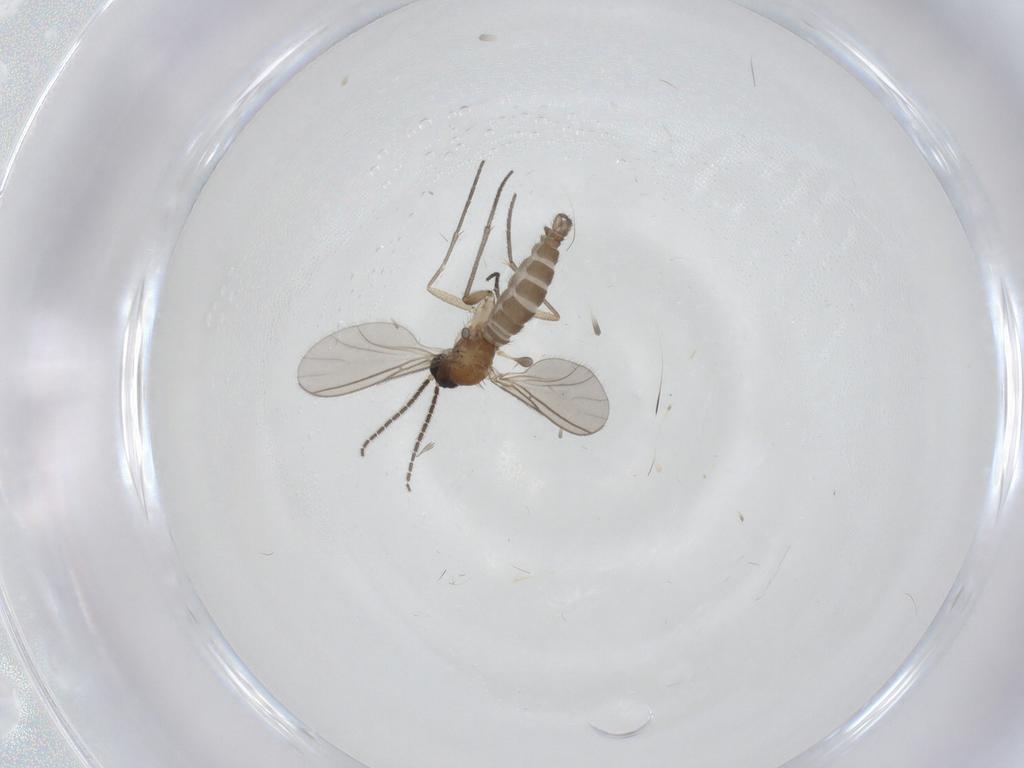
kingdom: Animalia
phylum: Arthropoda
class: Insecta
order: Diptera
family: Sciaridae
